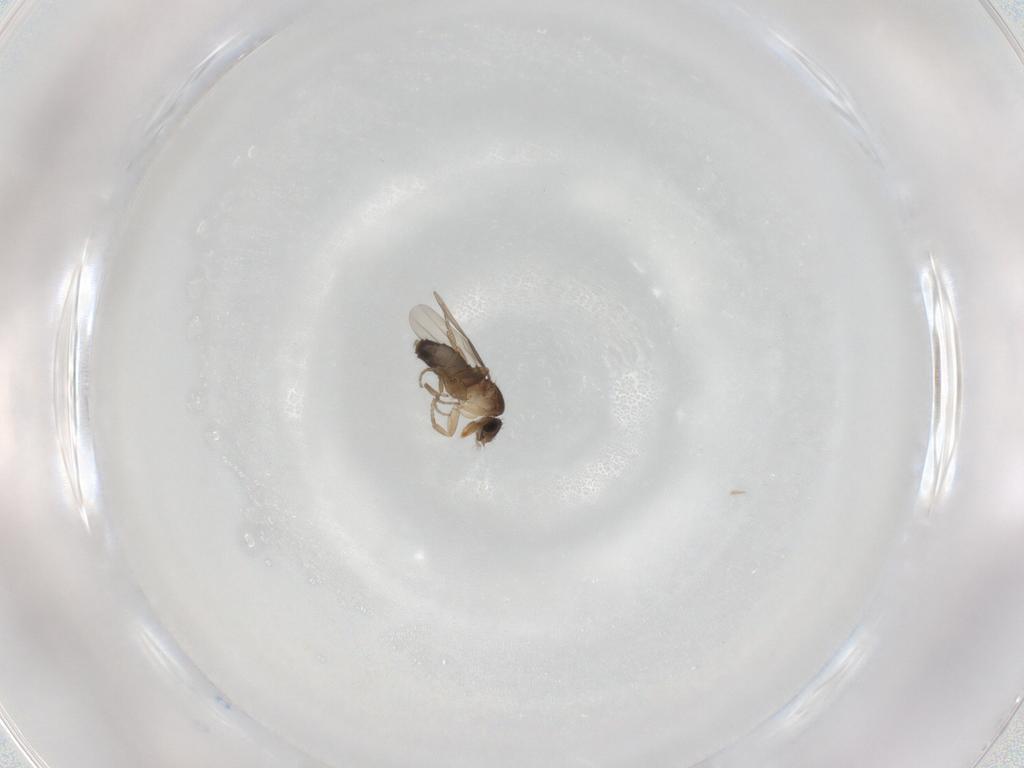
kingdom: Animalia
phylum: Arthropoda
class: Insecta
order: Diptera
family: Phoridae
